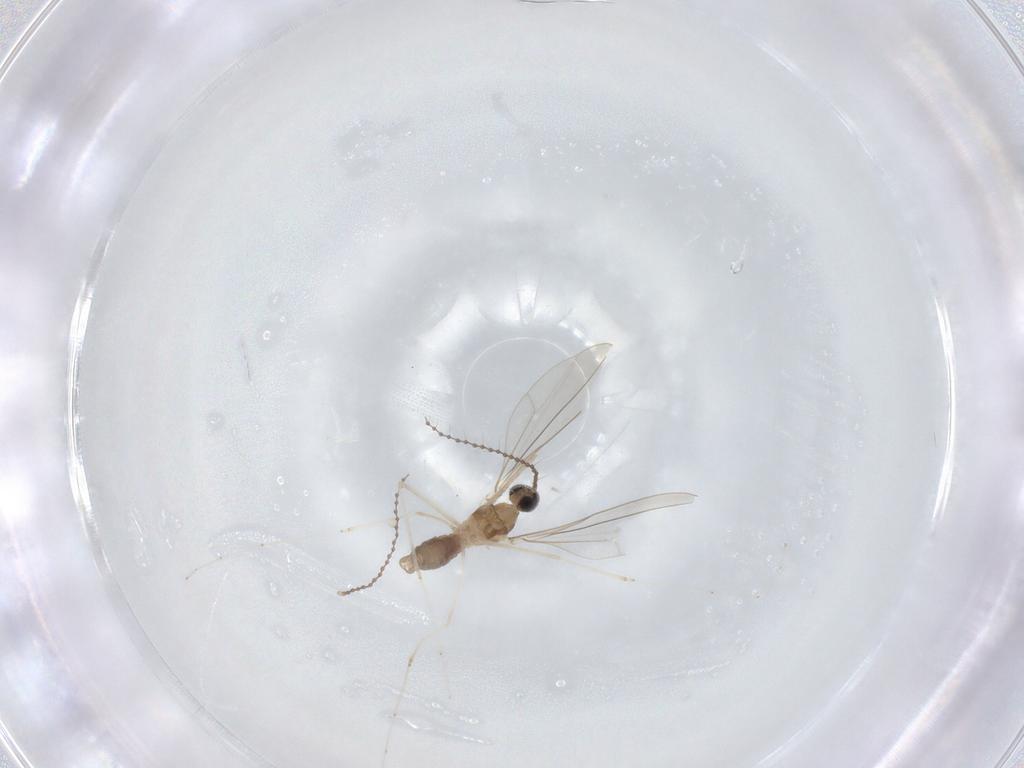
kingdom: Animalia
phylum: Arthropoda
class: Insecta
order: Diptera
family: Cecidomyiidae
